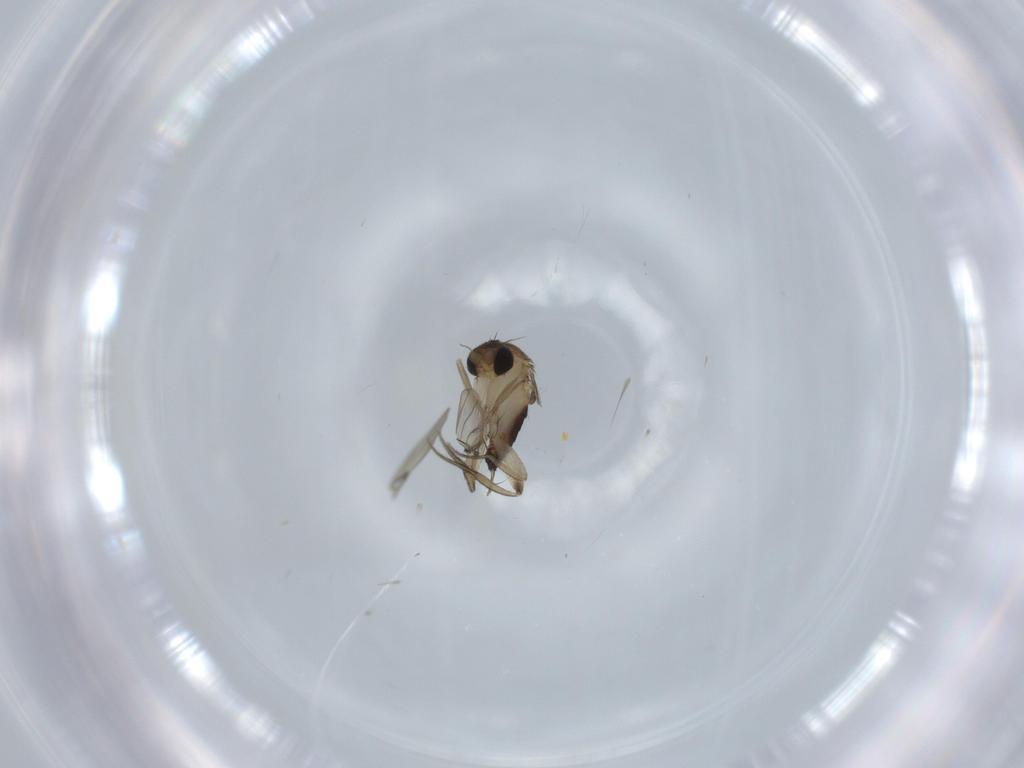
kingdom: Animalia
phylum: Arthropoda
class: Insecta
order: Diptera
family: Phoridae
